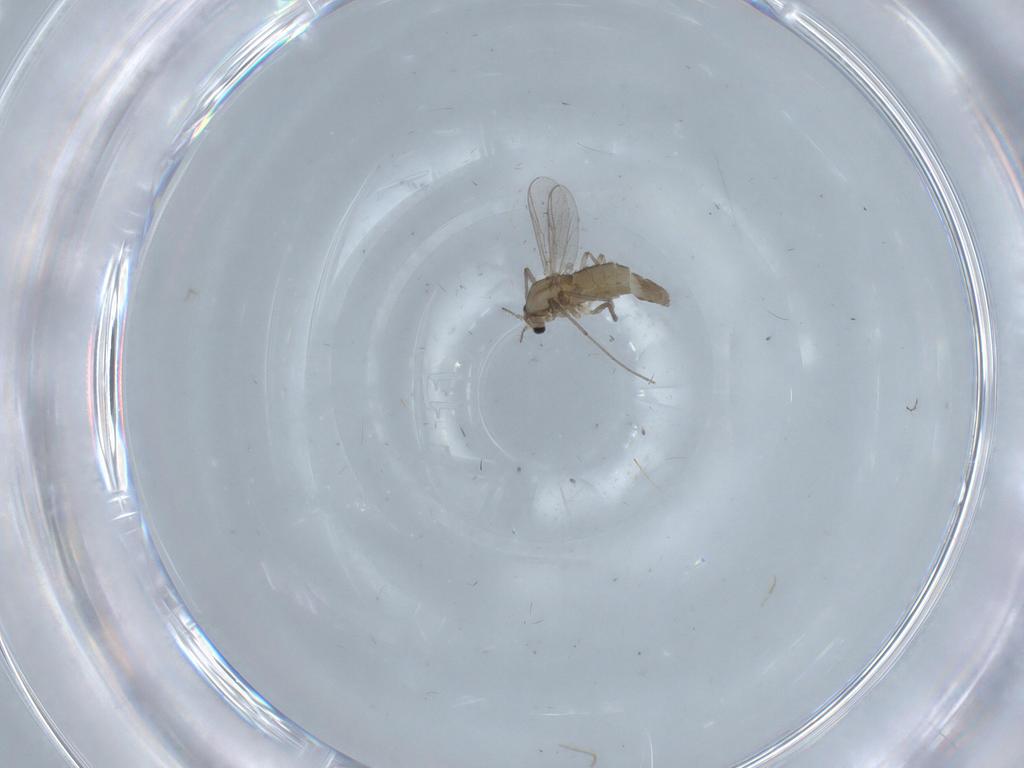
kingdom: Animalia
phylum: Arthropoda
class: Insecta
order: Diptera
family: Chironomidae
